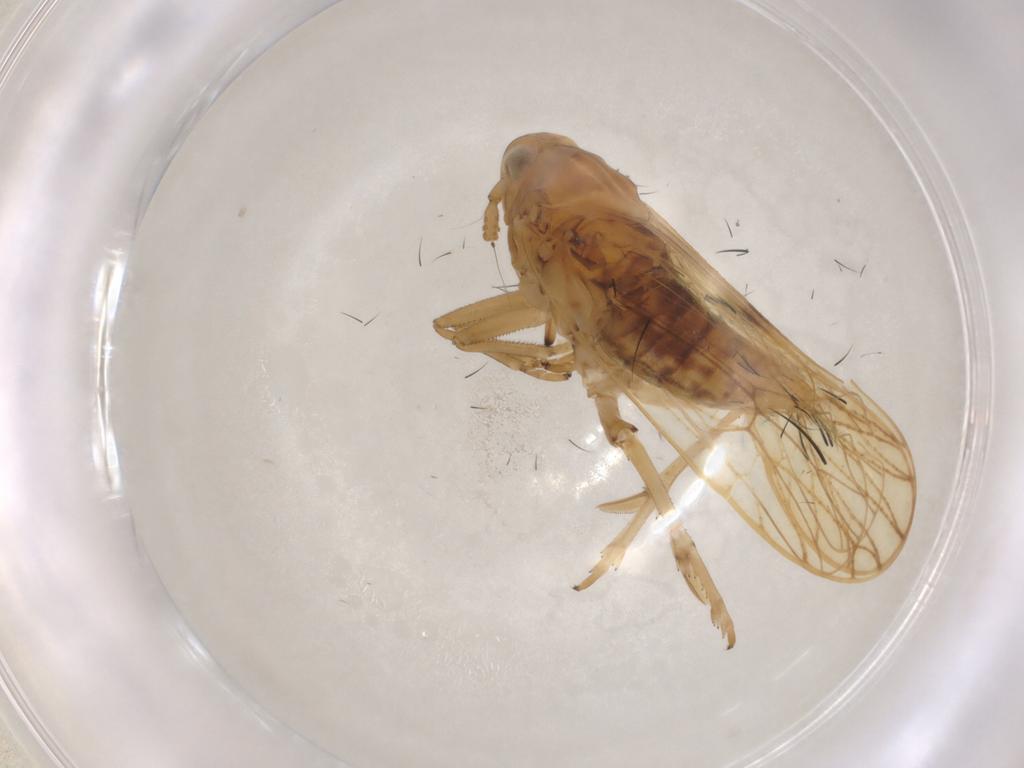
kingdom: Animalia
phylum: Arthropoda
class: Insecta
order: Hemiptera
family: Delphacidae
